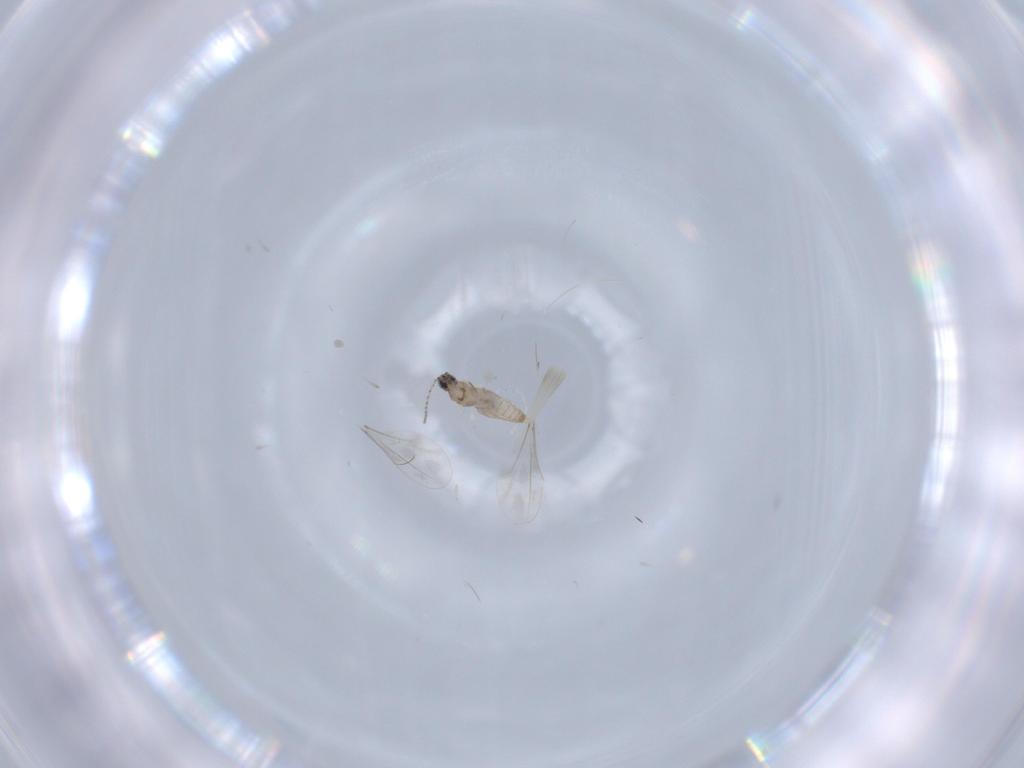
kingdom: Animalia
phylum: Arthropoda
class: Insecta
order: Diptera
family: Cecidomyiidae
